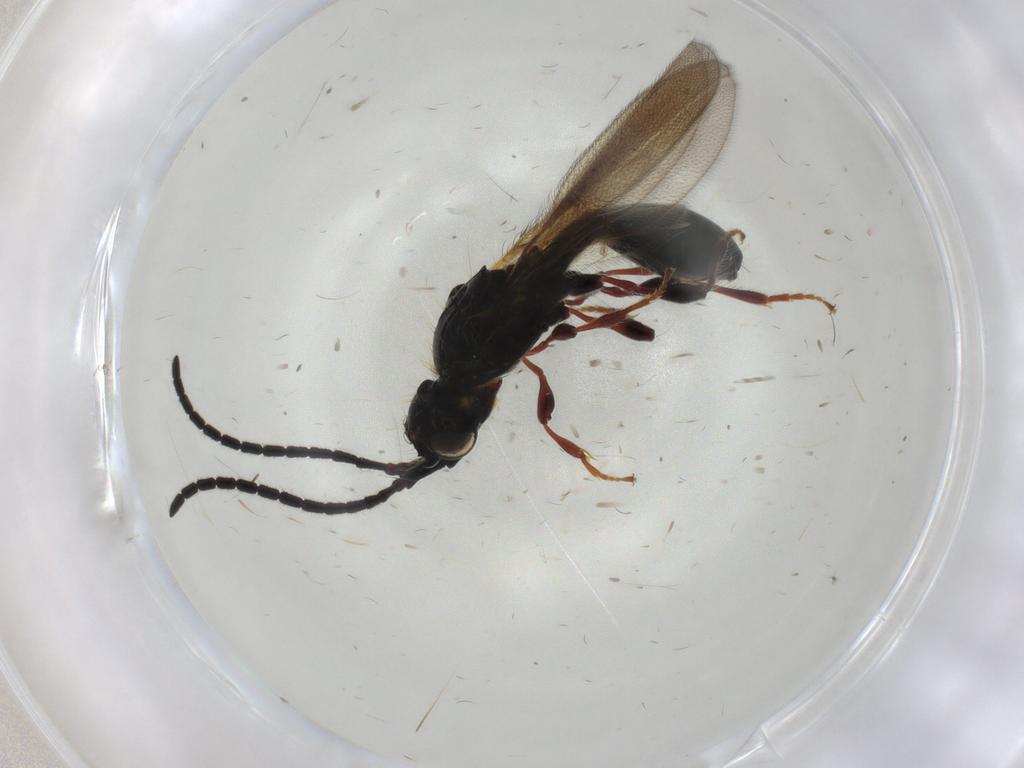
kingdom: Animalia
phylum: Arthropoda
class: Insecta
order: Hymenoptera
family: Diapriidae
